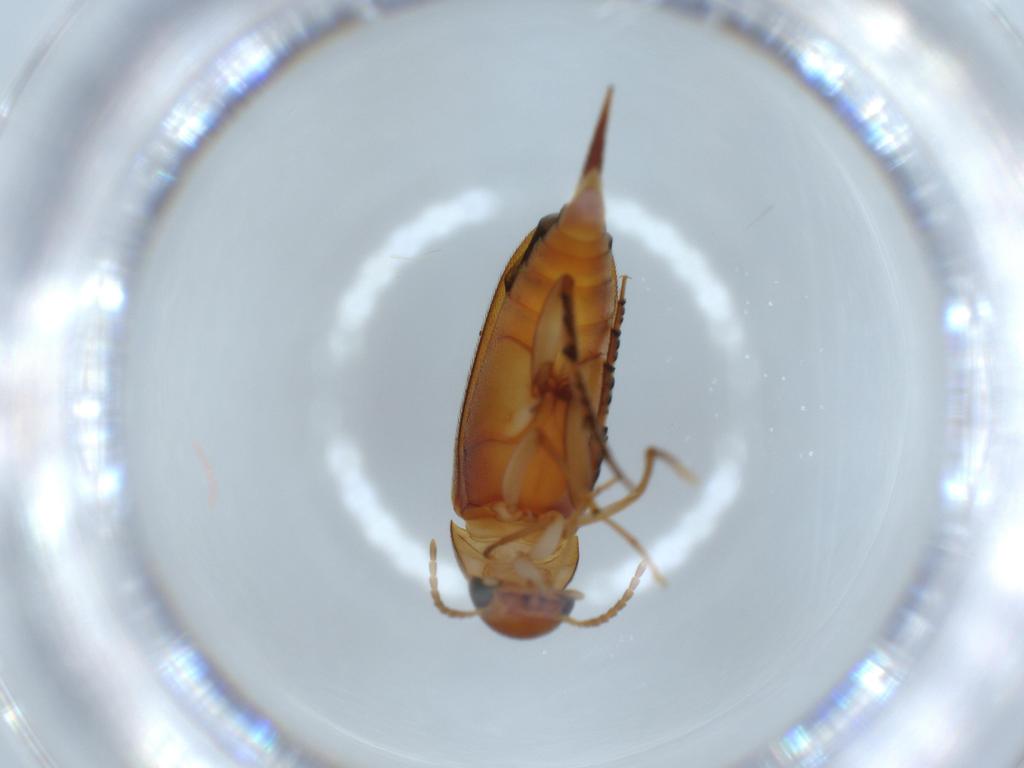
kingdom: Animalia
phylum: Arthropoda
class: Insecta
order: Coleoptera
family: Mordellidae
